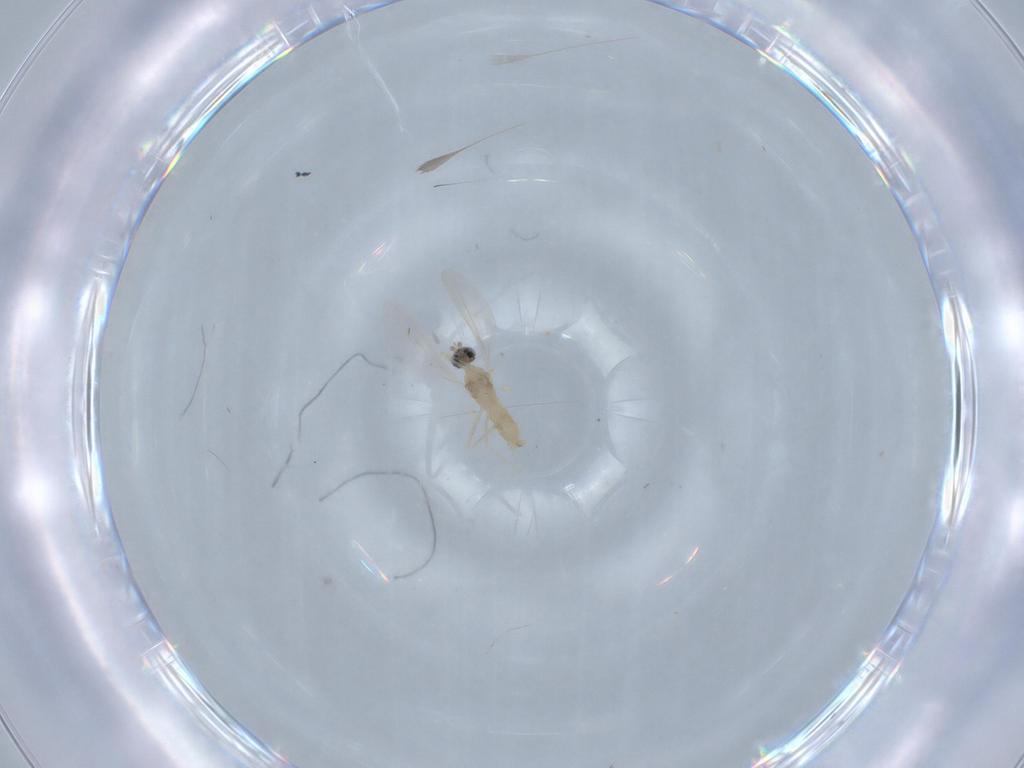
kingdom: Animalia
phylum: Arthropoda
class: Insecta
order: Diptera
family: Cecidomyiidae
